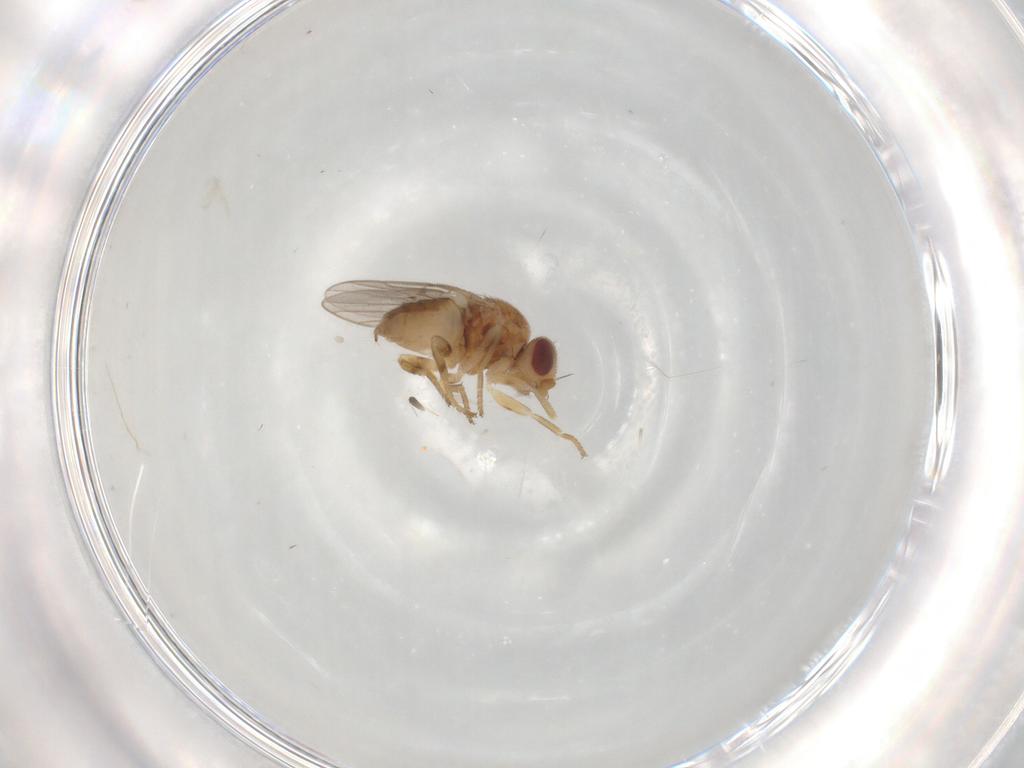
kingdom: Animalia
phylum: Arthropoda
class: Insecta
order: Diptera
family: Chloropidae
